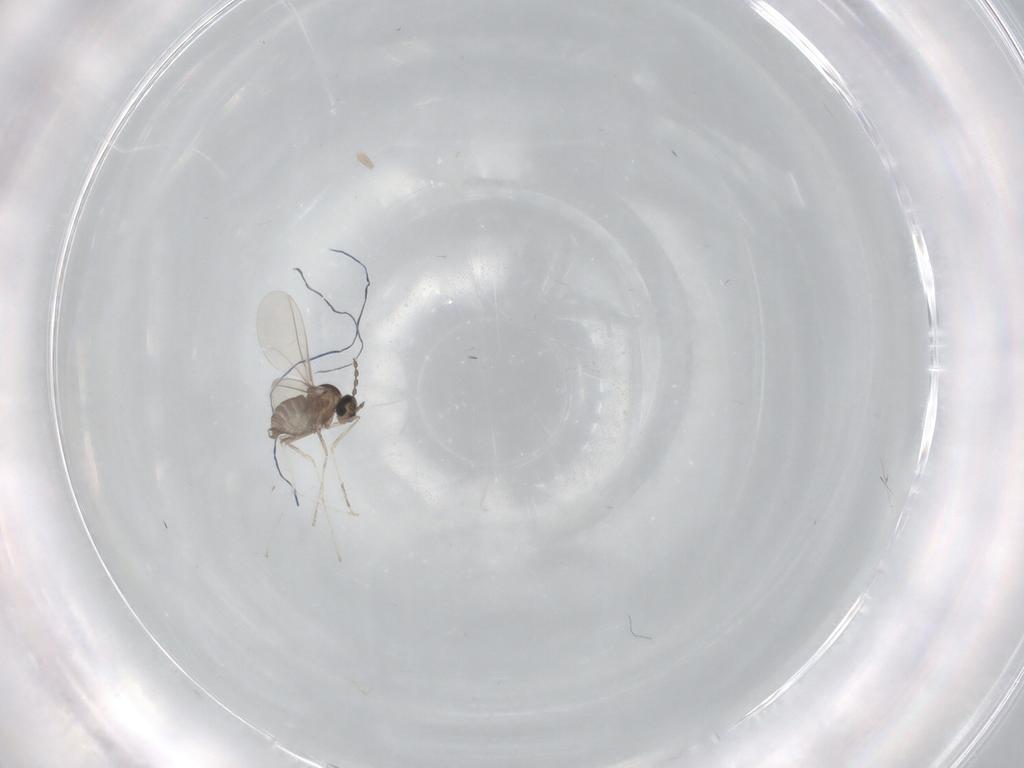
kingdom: Animalia
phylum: Arthropoda
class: Insecta
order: Diptera
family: Cecidomyiidae
